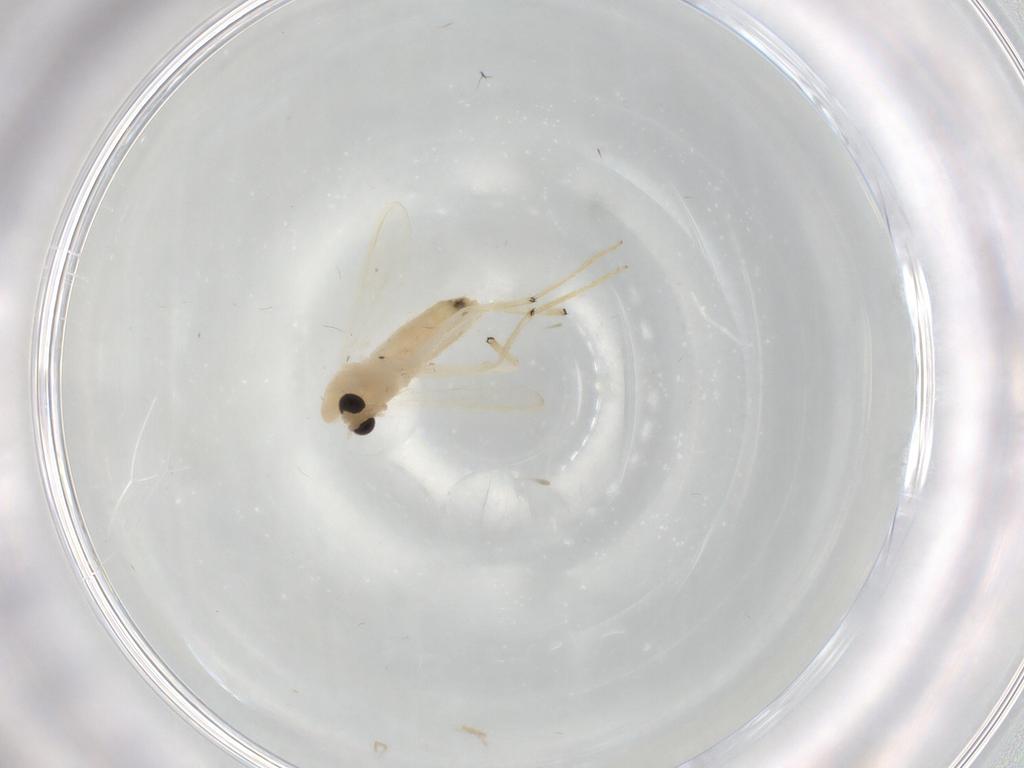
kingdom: Animalia
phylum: Arthropoda
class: Insecta
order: Diptera
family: Dolichopodidae
